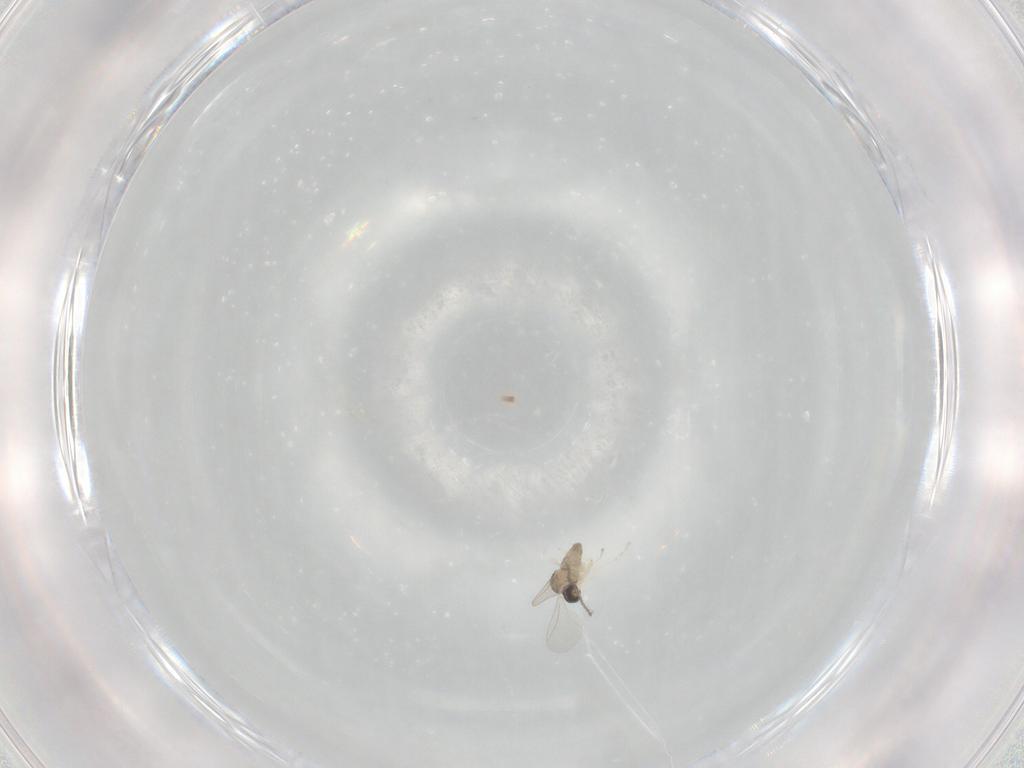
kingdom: Animalia
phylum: Arthropoda
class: Insecta
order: Diptera
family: Cecidomyiidae
